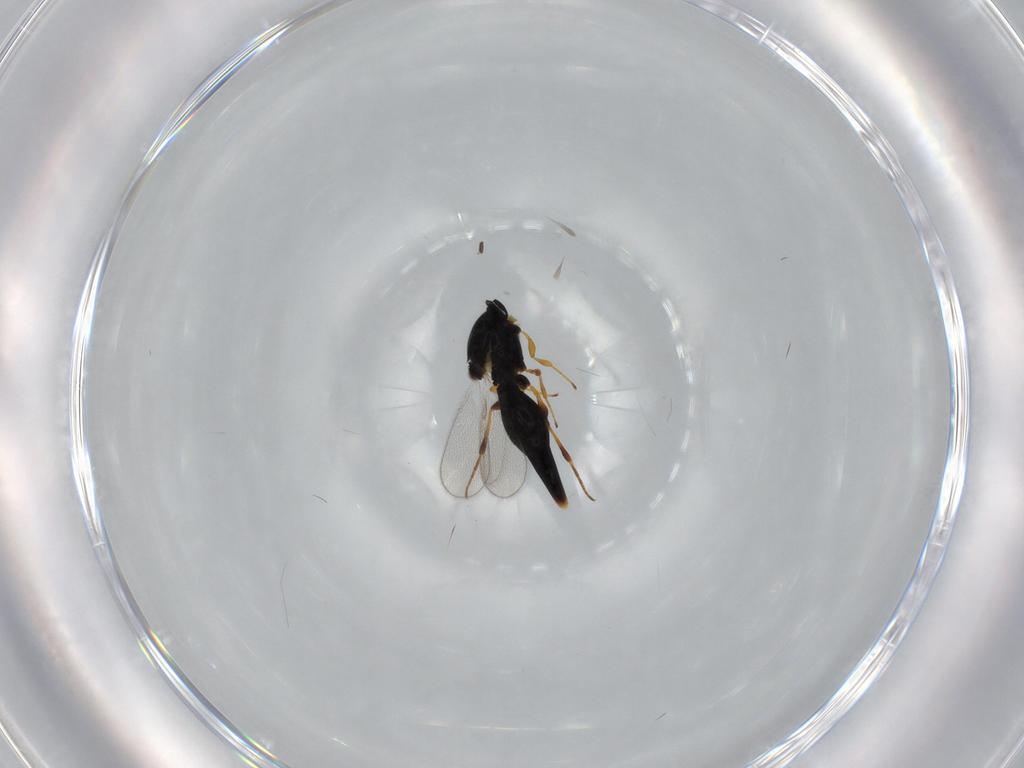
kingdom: Animalia
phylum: Arthropoda
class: Insecta
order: Hymenoptera
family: Platygastridae
